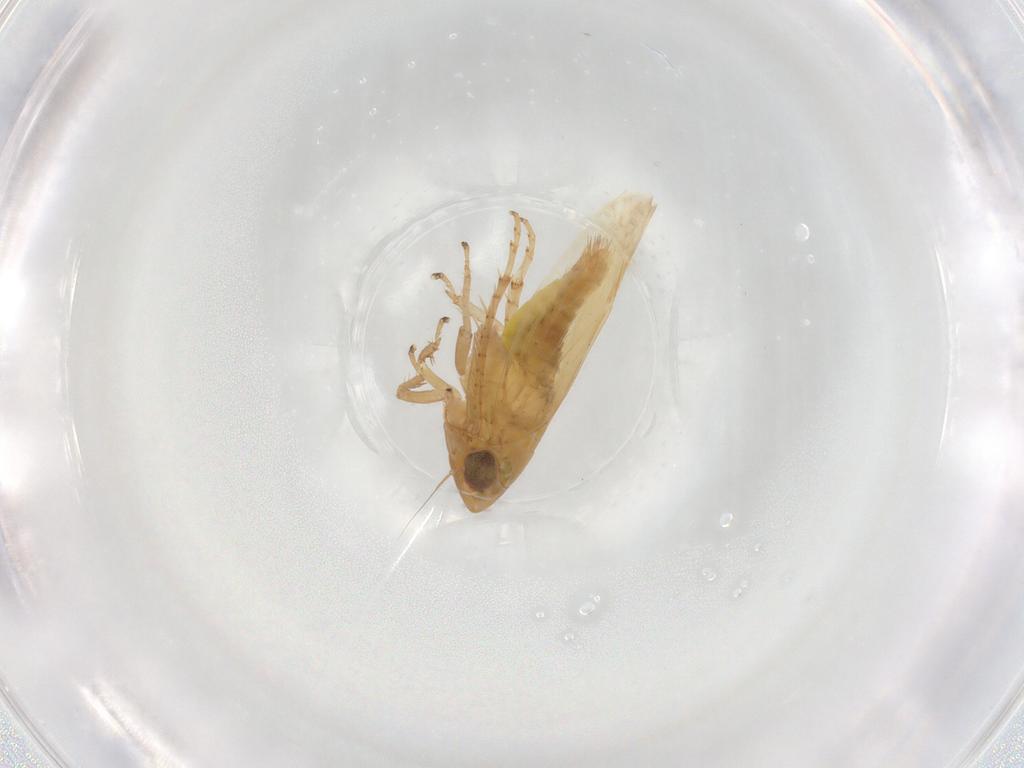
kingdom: Animalia
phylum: Arthropoda
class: Insecta
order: Hemiptera
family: Cicadellidae
